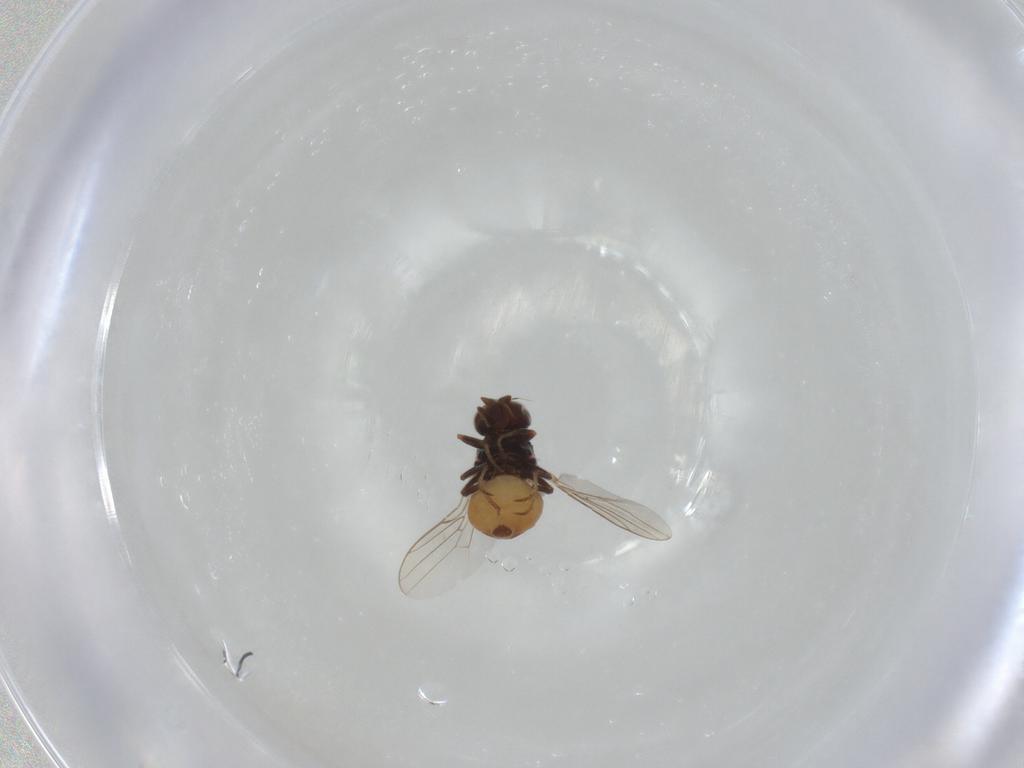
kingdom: Animalia
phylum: Arthropoda
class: Insecta
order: Diptera
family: Chloropidae
